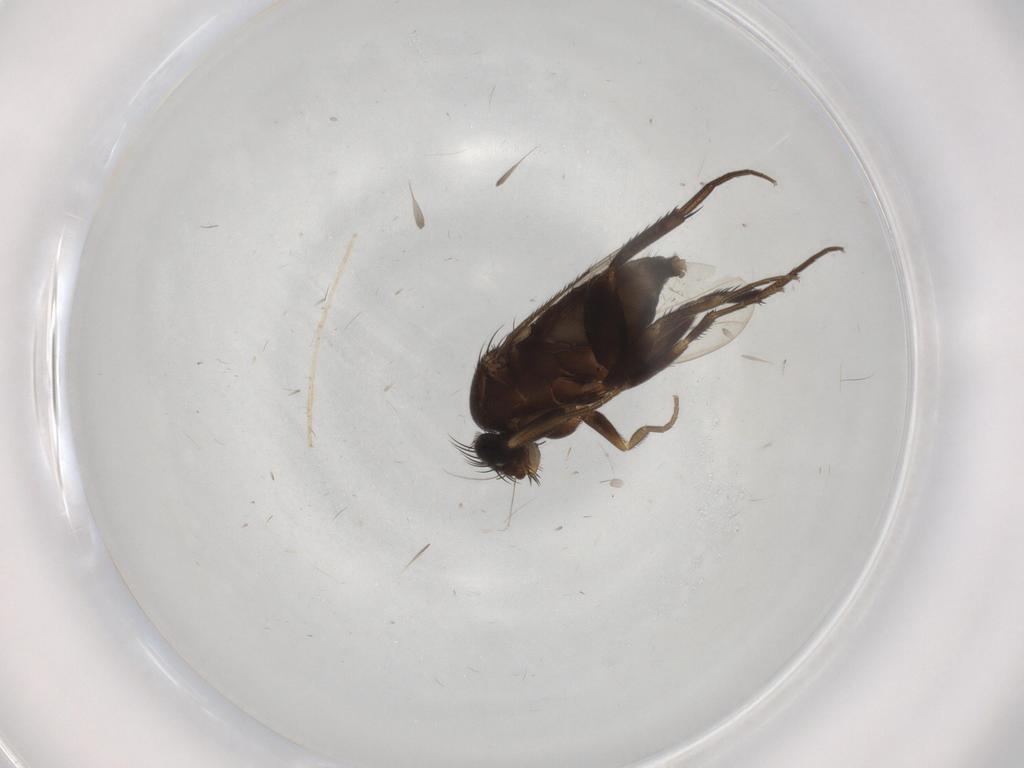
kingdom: Animalia
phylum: Arthropoda
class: Insecta
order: Diptera
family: Phoridae
